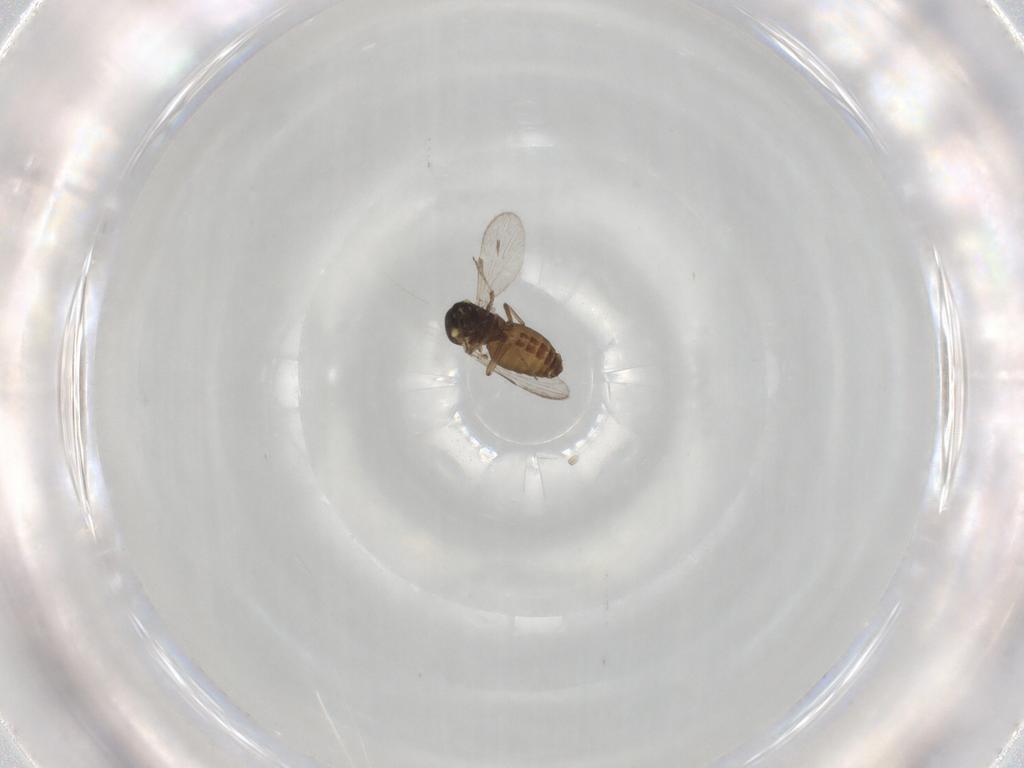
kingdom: Animalia
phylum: Arthropoda
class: Insecta
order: Diptera
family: Ceratopogonidae
